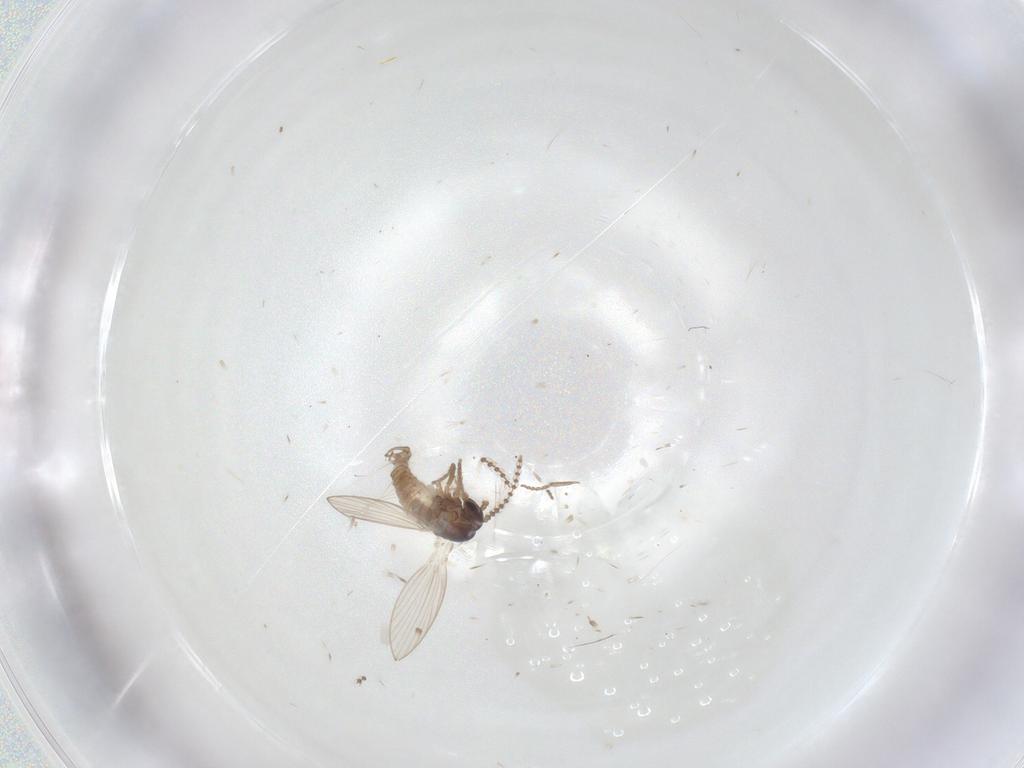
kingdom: Animalia
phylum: Arthropoda
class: Insecta
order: Diptera
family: Psychodidae
